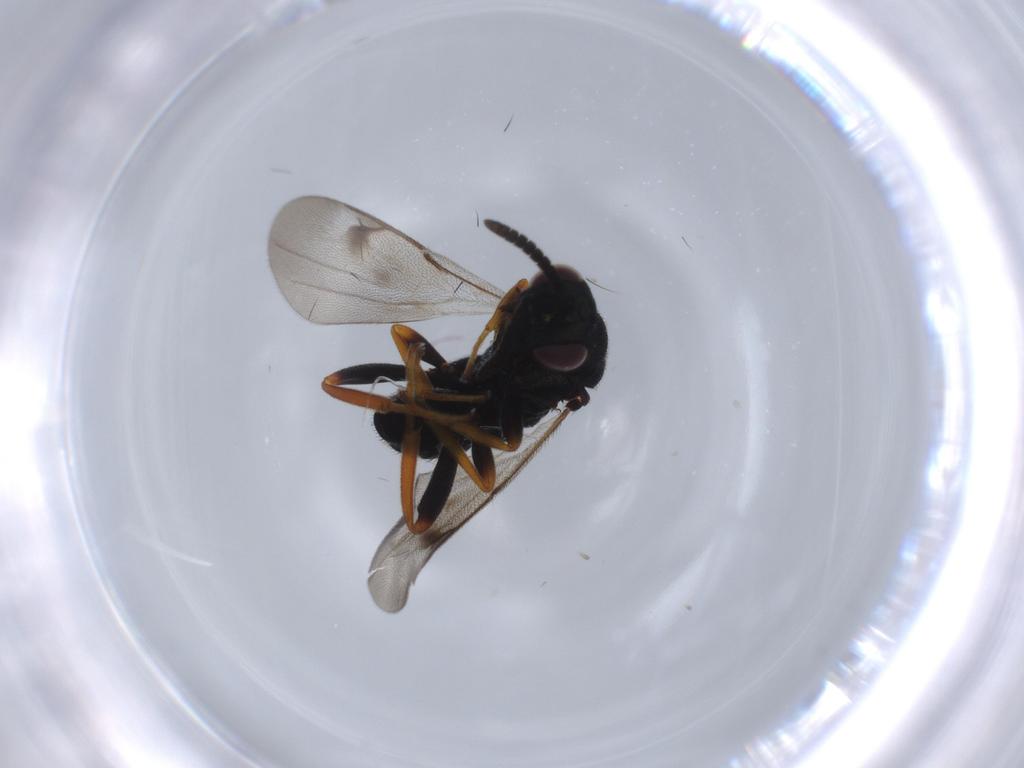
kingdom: Animalia
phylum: Arthropoda
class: Insecta
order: Hymenoptera
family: Torymidae
